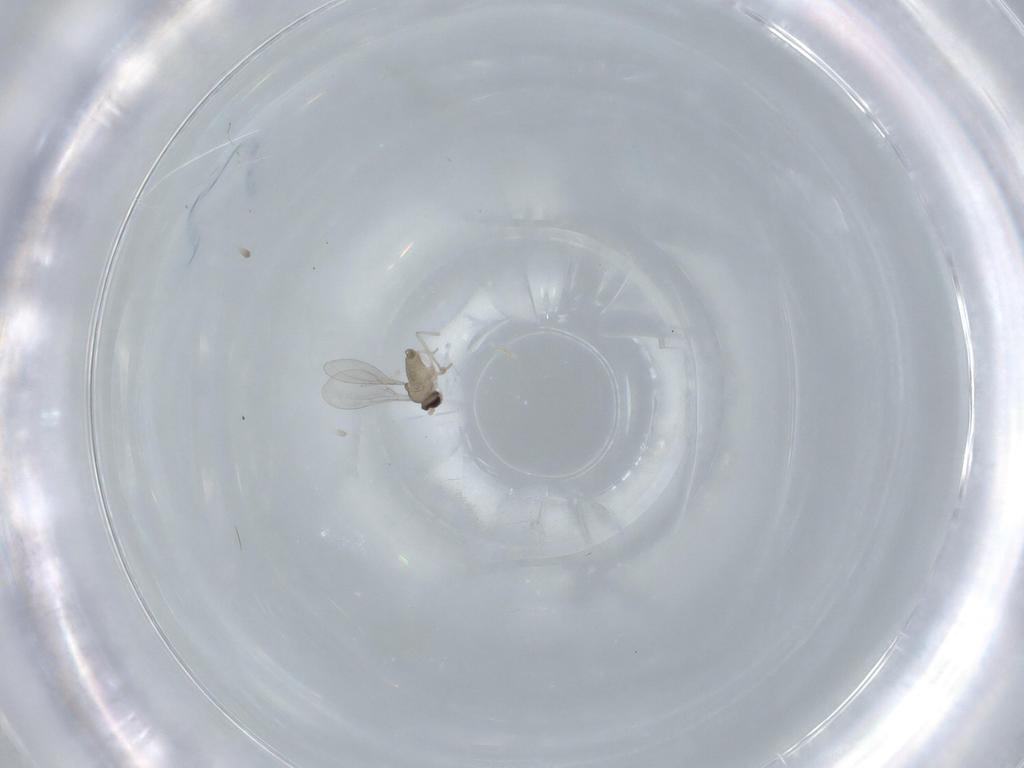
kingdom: Animalia
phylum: Arthropoda
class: Insecta
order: Diptera
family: Cecidomyiidae
